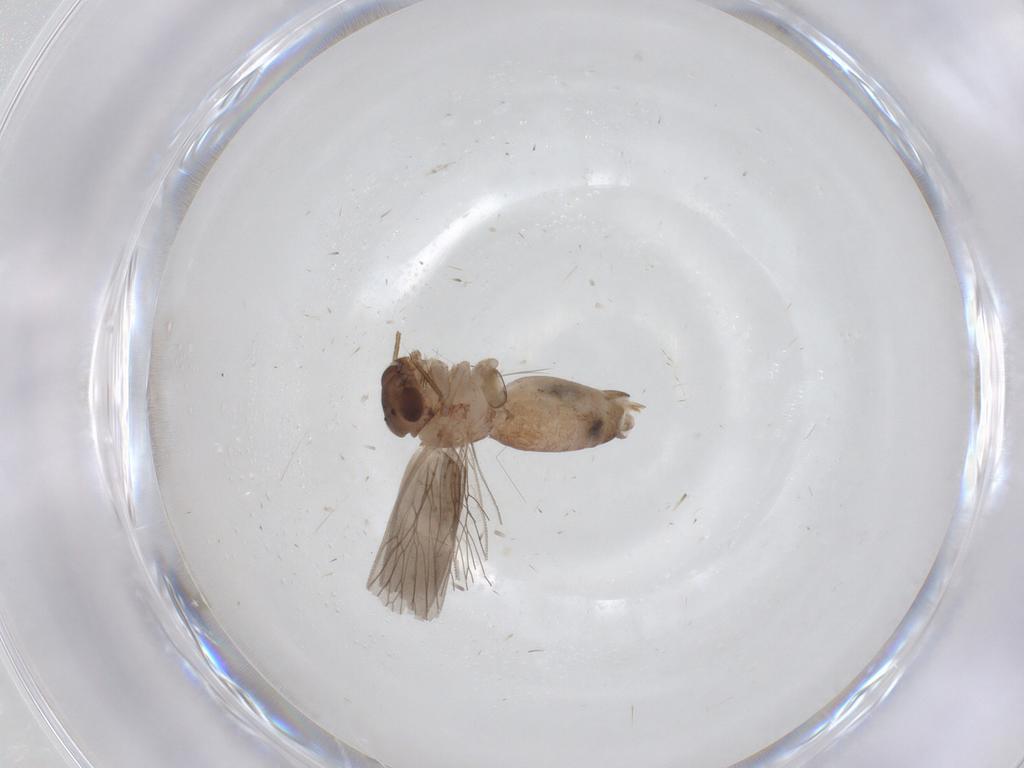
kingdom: Animalia
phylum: Arthropoda
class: Insecta
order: Psocodea
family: Lepidopsocidae
